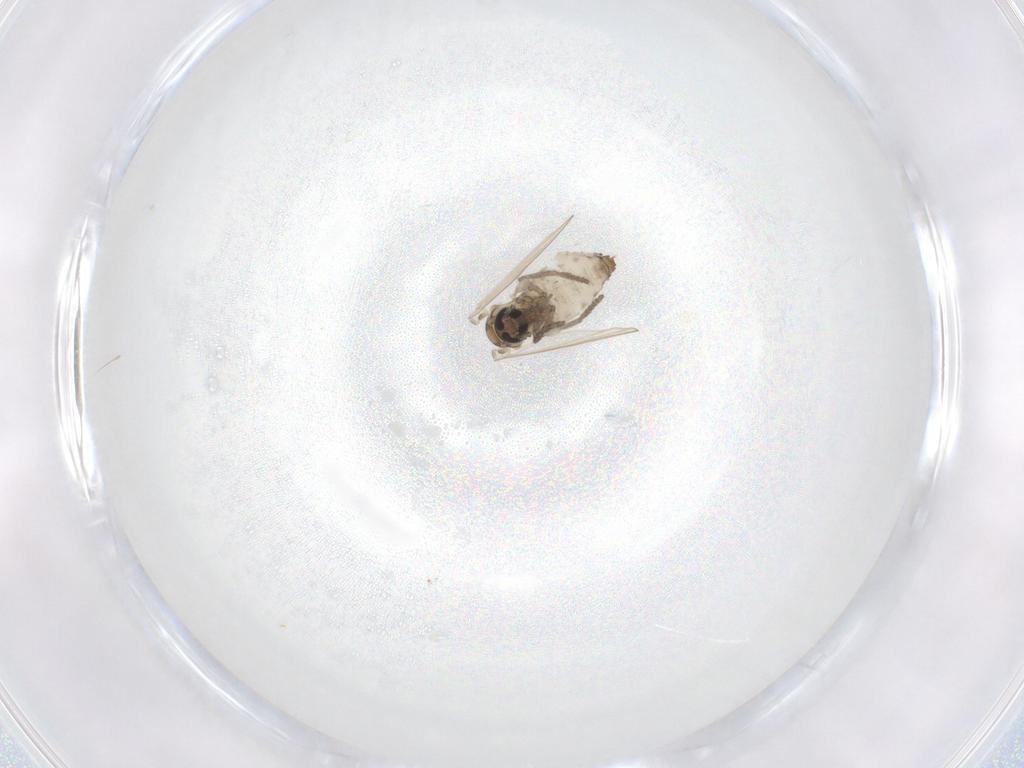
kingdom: Animalia
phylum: Arthropoda
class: Insecta
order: Diptera
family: Psychodidae
